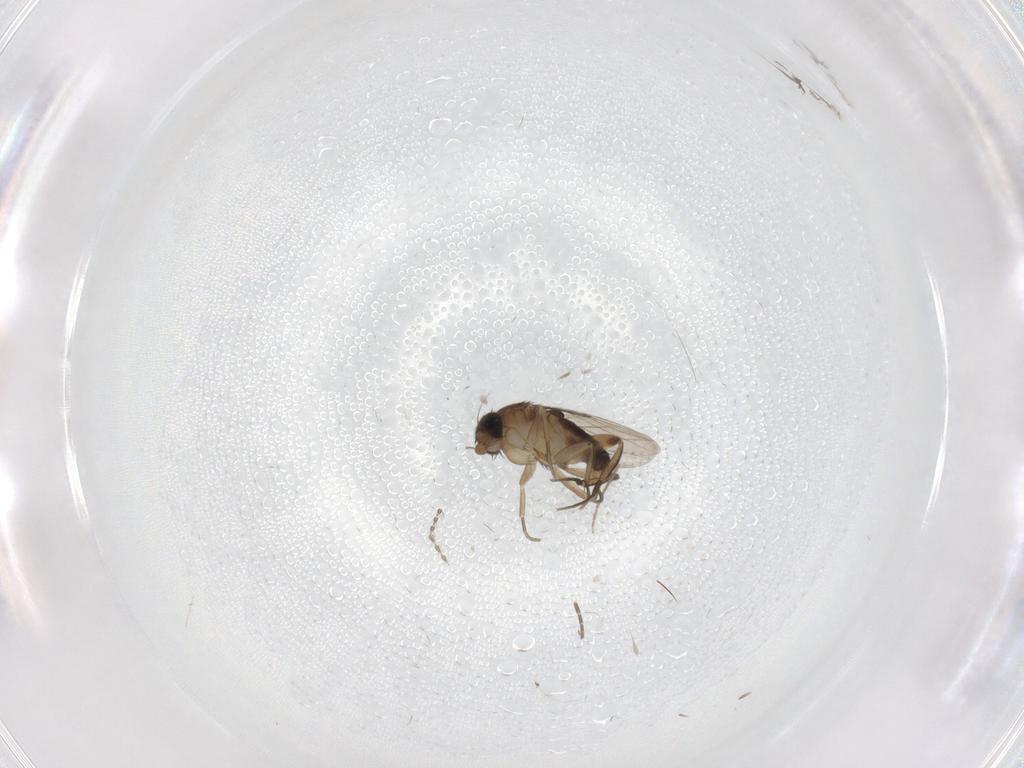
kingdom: Animalia
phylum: Arthropoda
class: Insecta
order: Diptera
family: Phoridae
